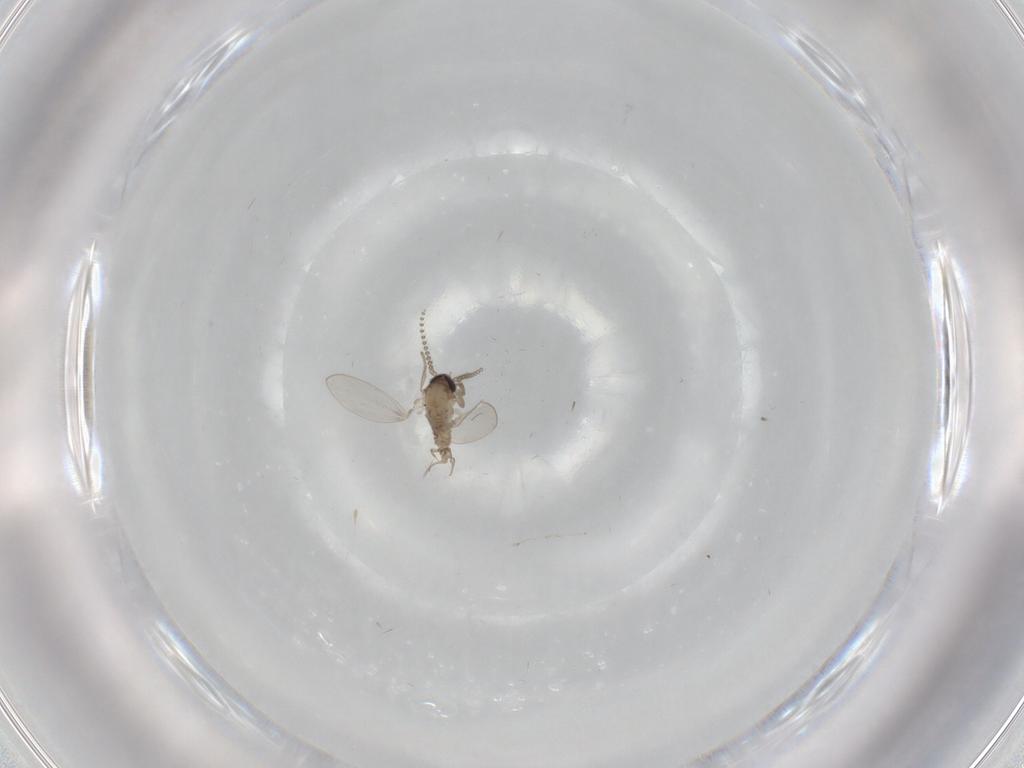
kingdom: Animalia
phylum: Arthropoda
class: Insecta
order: Diptera
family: Psychodidae
